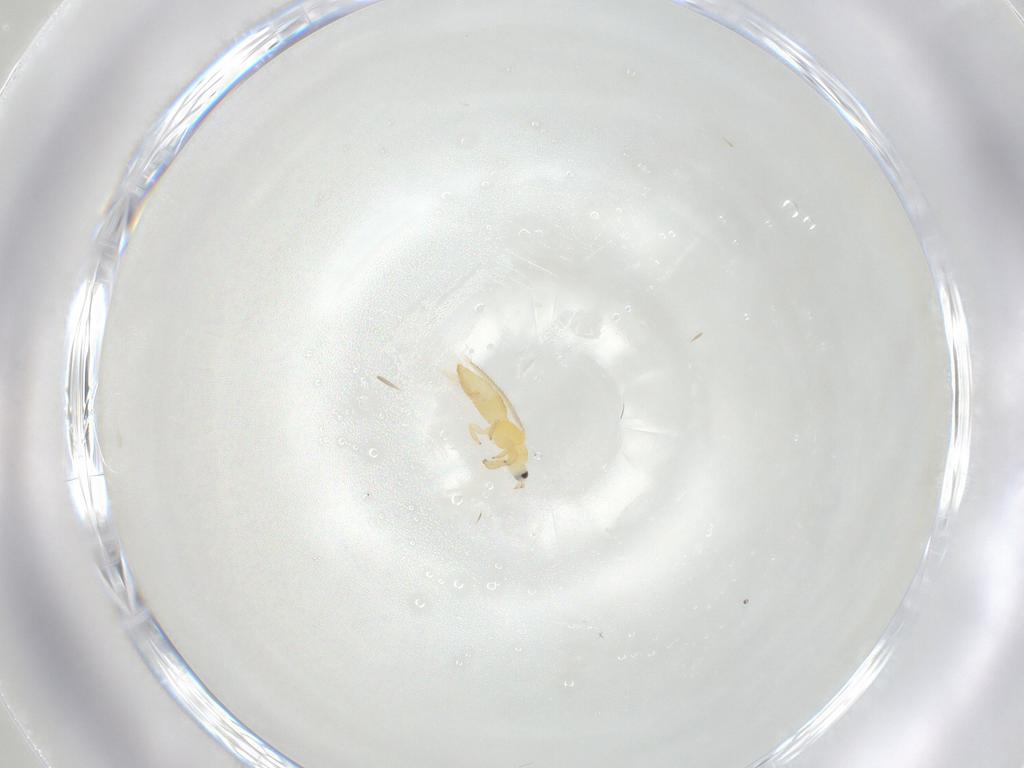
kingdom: Animalia
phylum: Arthropoda
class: Insecta
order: Thysanoptera
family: Melanthripidae
